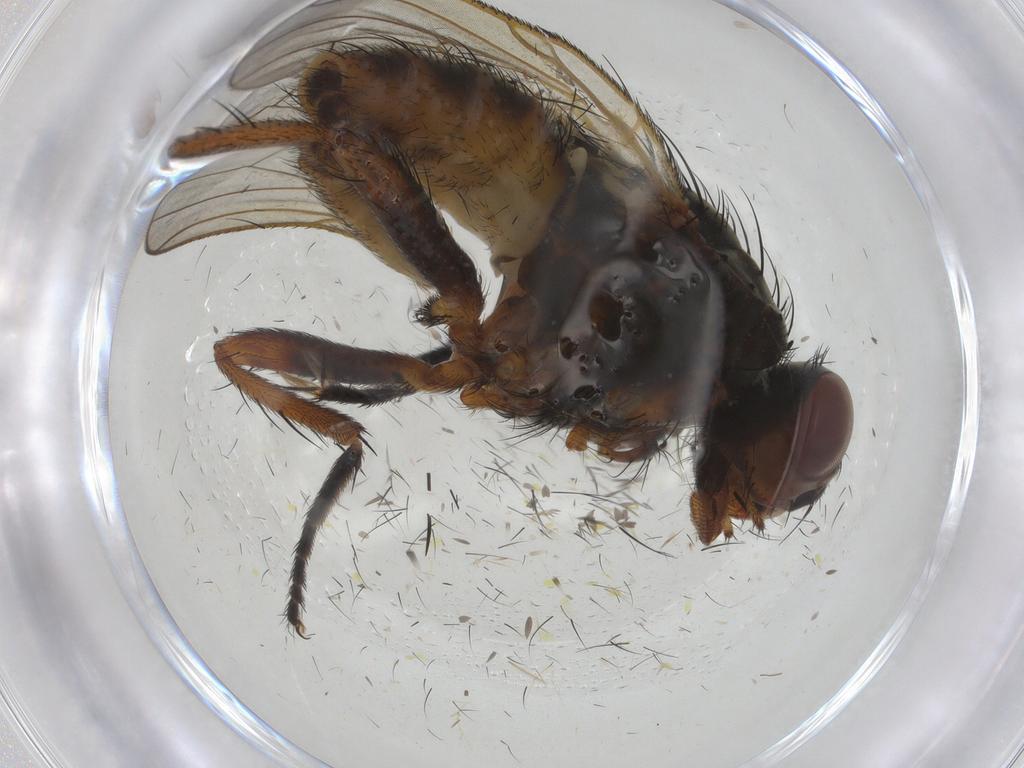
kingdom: Animalia
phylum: Arthropoda
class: Insecta
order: Diptera
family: Anthomyiidae
